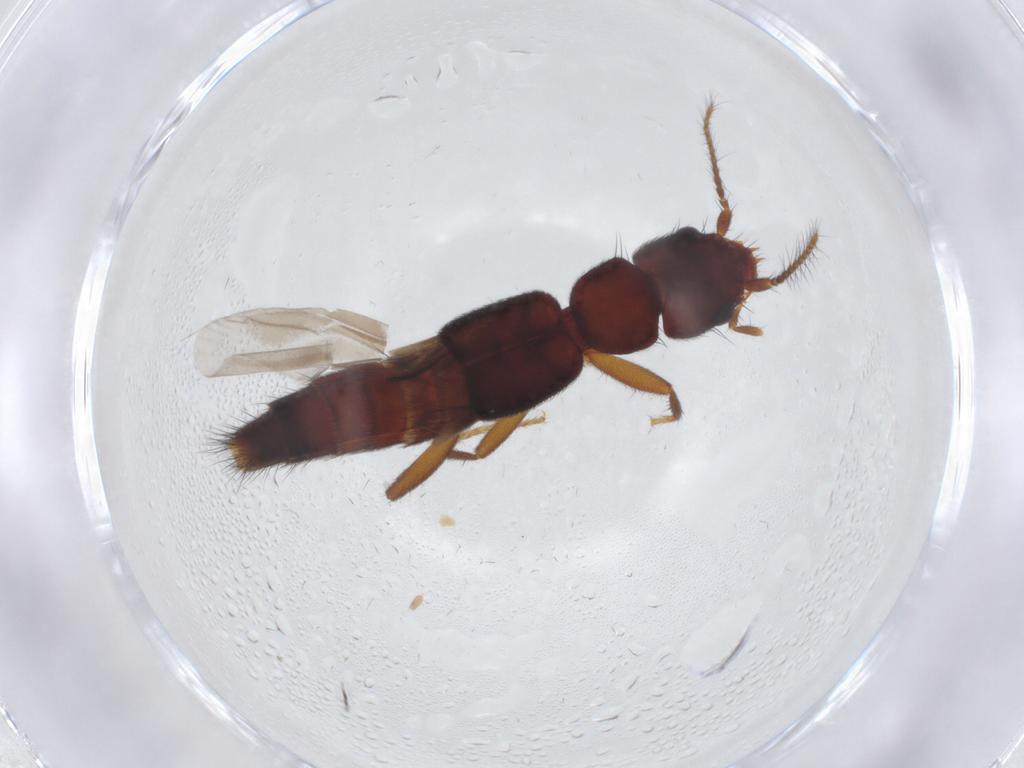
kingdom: Animalia
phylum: Arthropoda
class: Insecta
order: Coleoptera
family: Staphylinidae
